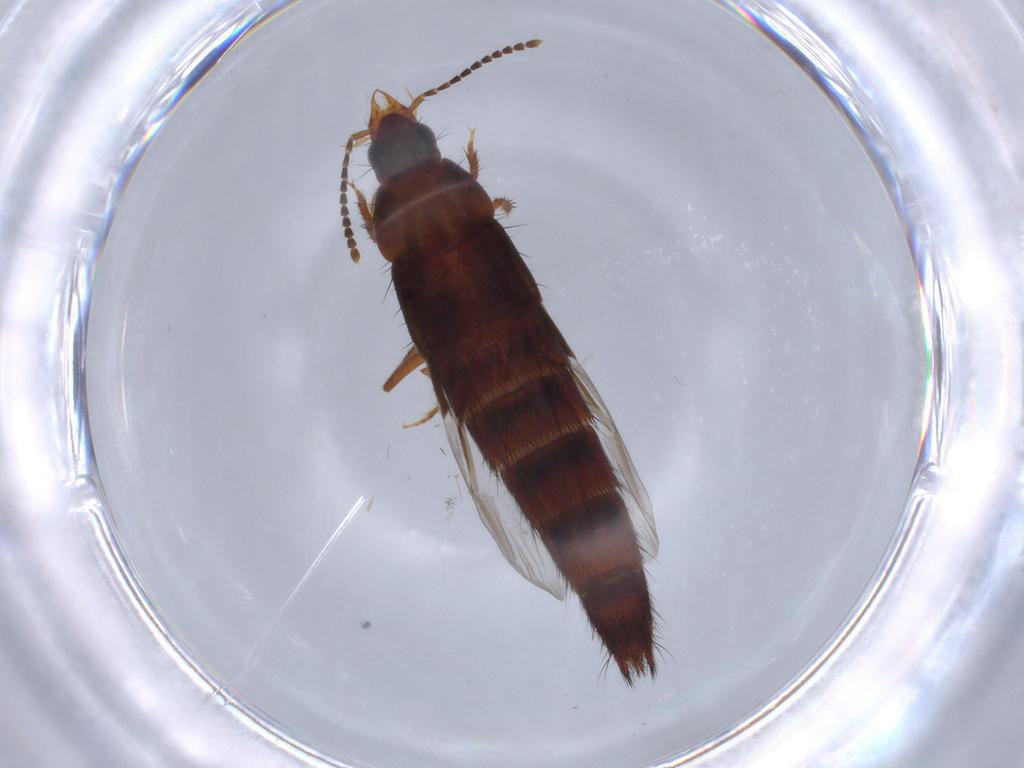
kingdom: Animalia
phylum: Arthropoda
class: Insecta
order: Coleoptera
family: Staphylinidae
